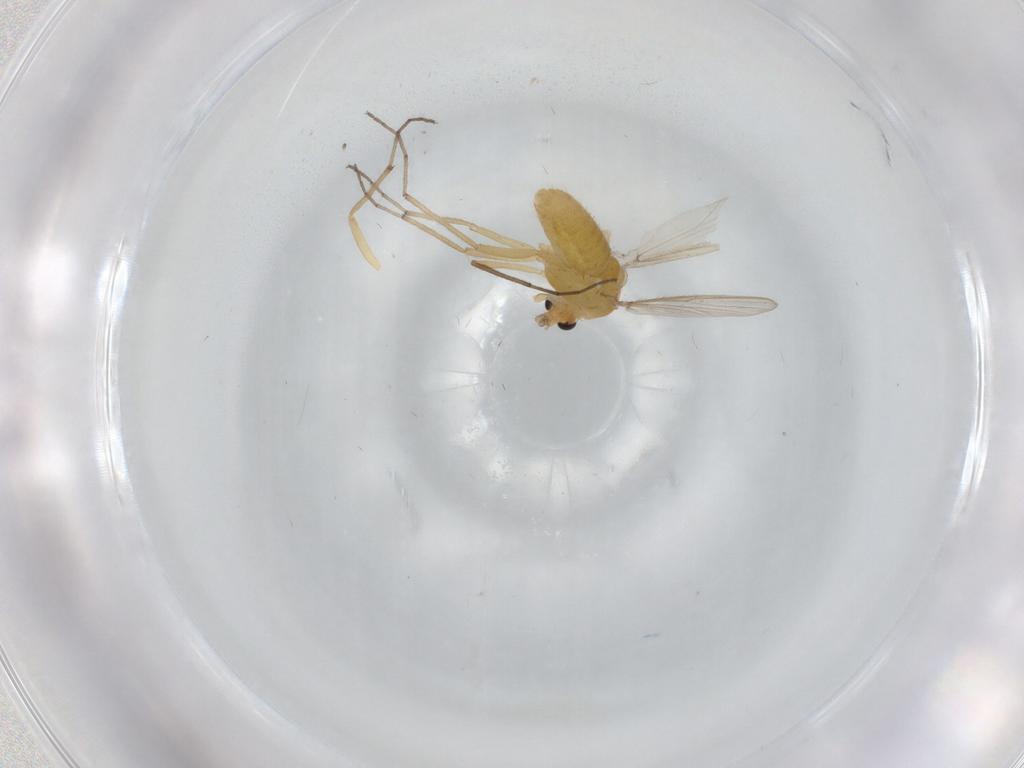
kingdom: Animalia
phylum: Arthropoda
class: Insecta
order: Diptera
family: Chironomidae
